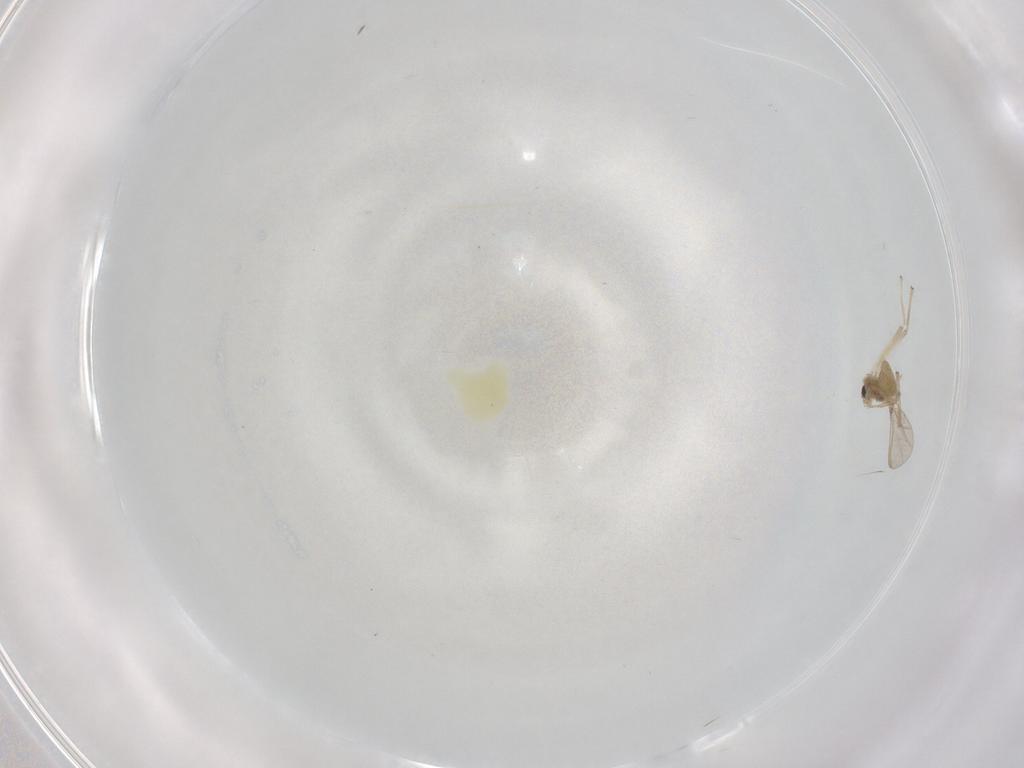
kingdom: Animalia
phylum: Arthropoda
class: Insecta
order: Diptera
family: Chironomidae
